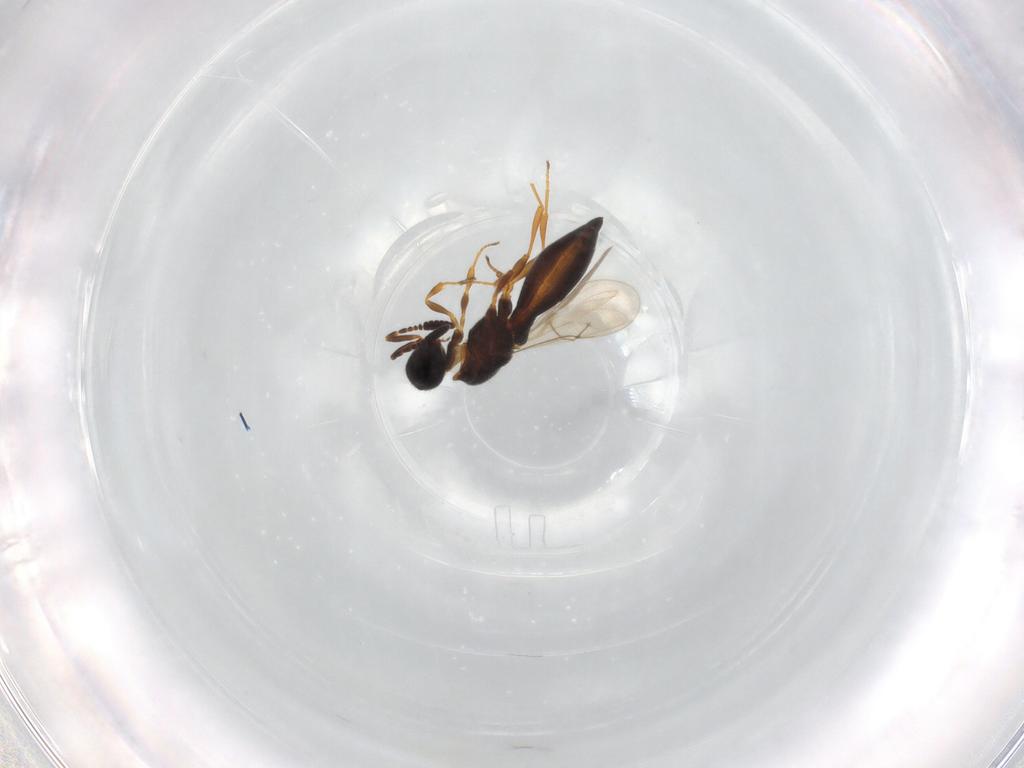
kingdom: Animalia
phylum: Arthropoda
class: Insecta
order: Hymenoptera
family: Scelionidae
